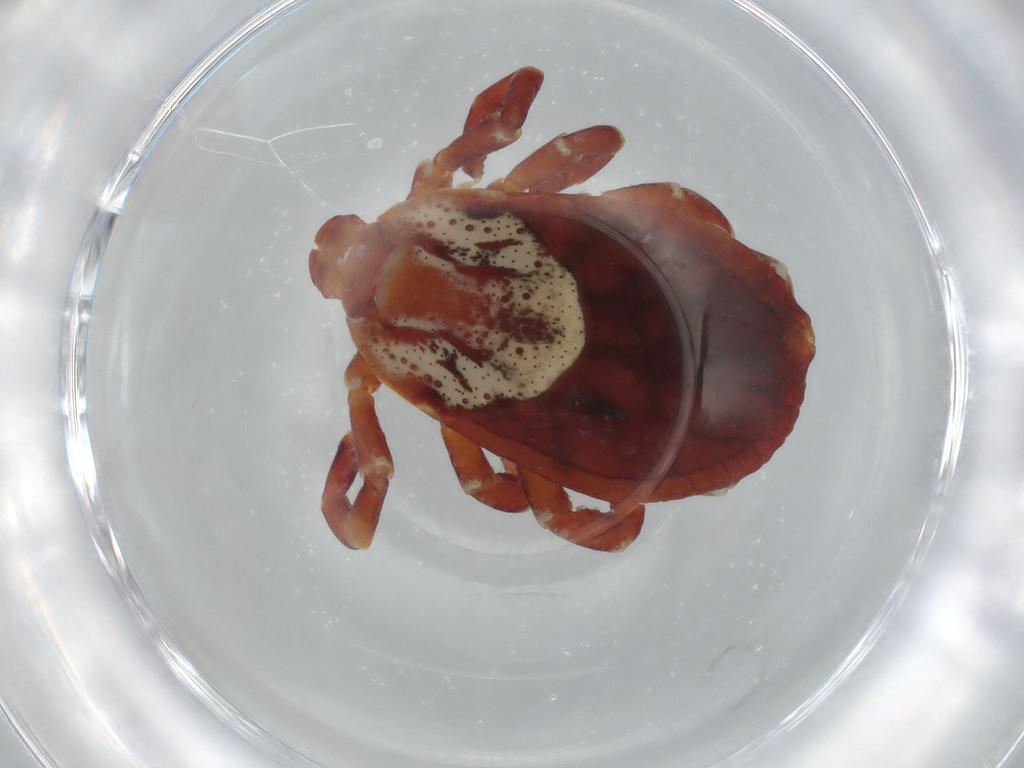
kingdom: Animalia
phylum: Arthropoda
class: Arachnida
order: Ixodida
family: Ixodidae
